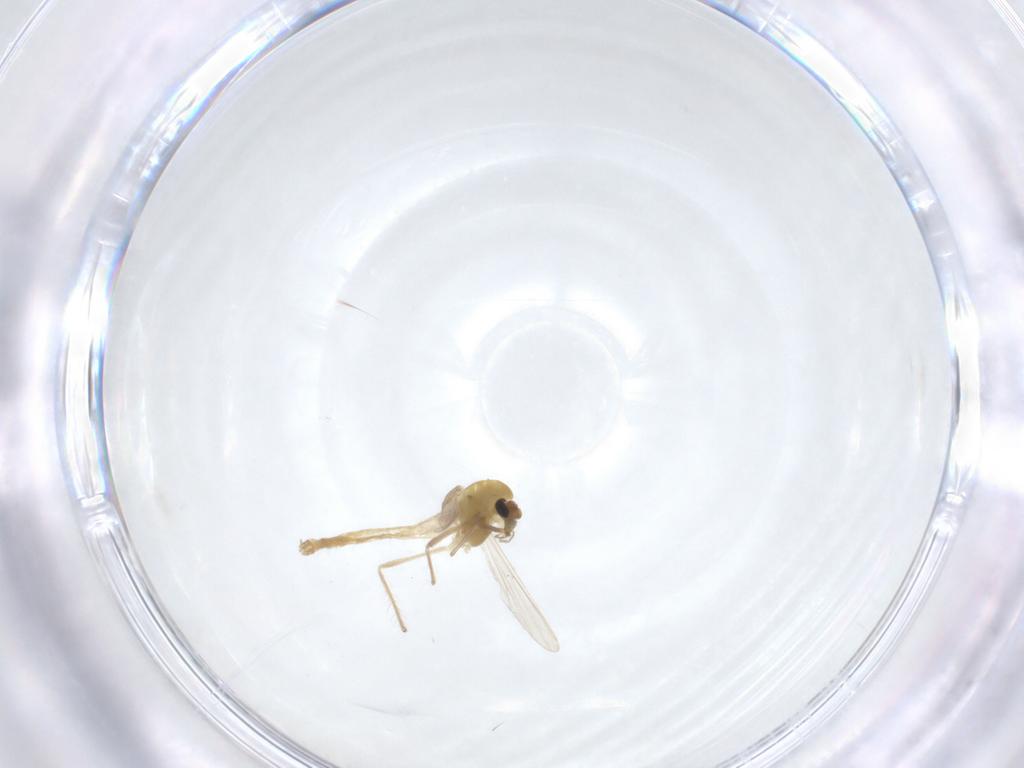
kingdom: Animalia
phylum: Arthropoda
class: Insecta
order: Diptera
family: Chironomidae
